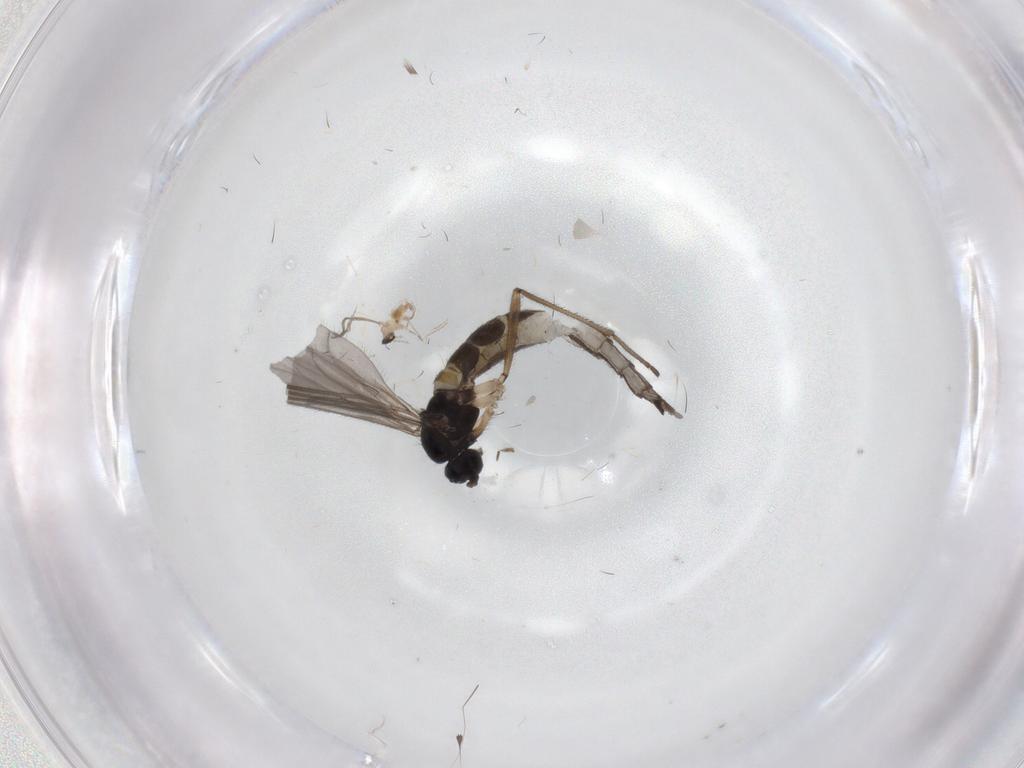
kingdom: Animalia
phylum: Arthropoda
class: Insecta
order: Diptera
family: Sciaridae
